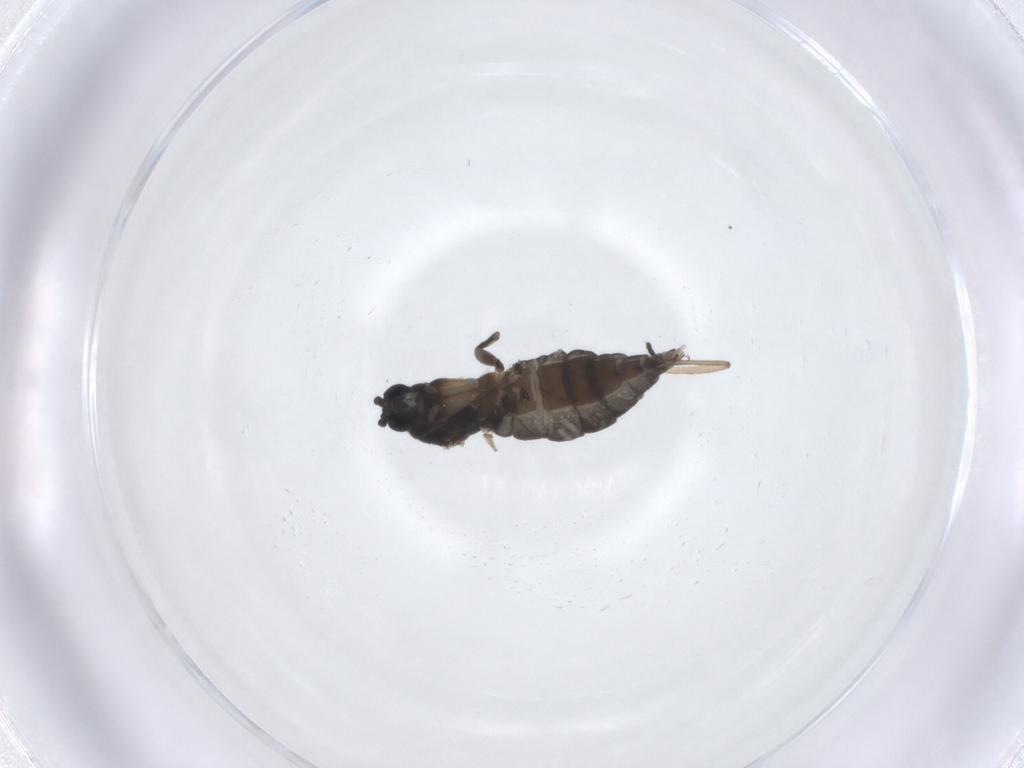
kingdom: Animalia
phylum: Arthropoda
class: Insecta
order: Diptera
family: Sciaridae
